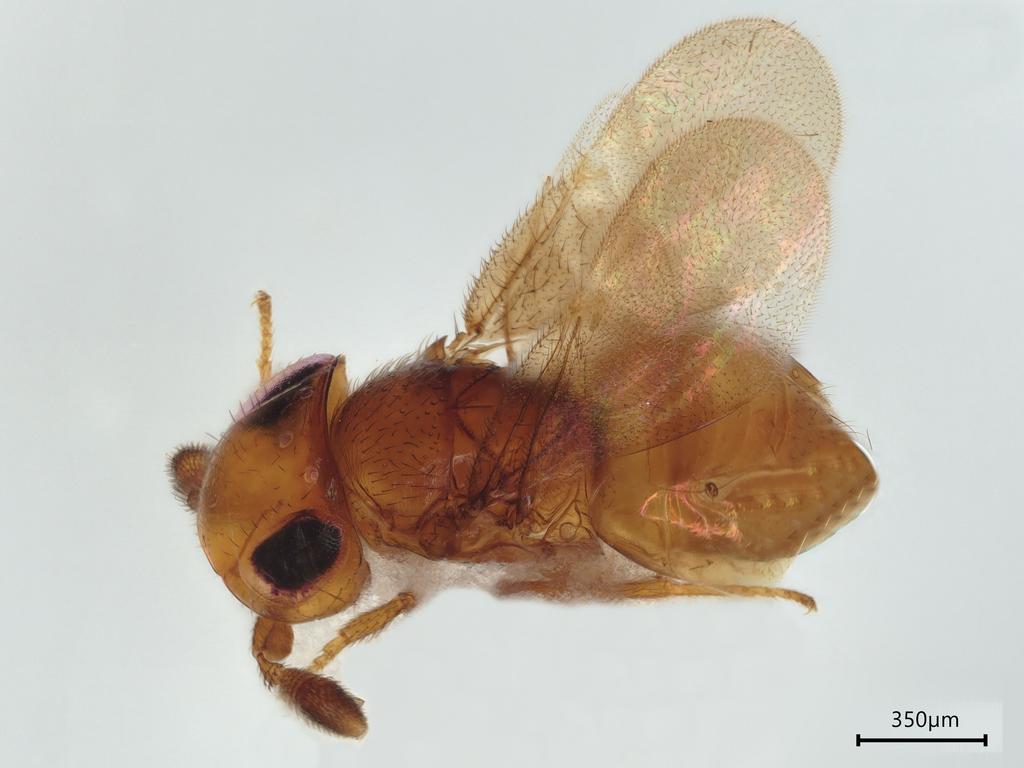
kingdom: Animalia
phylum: Arthropoda
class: Insecta
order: Hymenoptera
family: Encyrtidae
